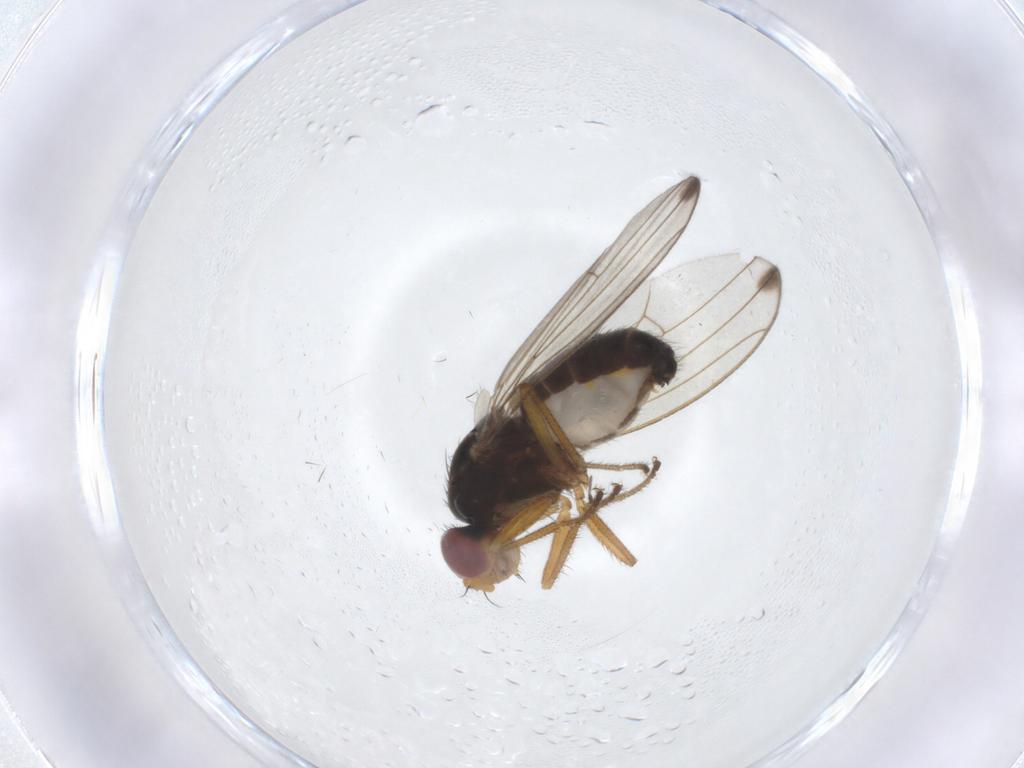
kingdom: Animalia
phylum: Arthropoda
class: Insecta
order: Diptera
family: Drosophilidae
